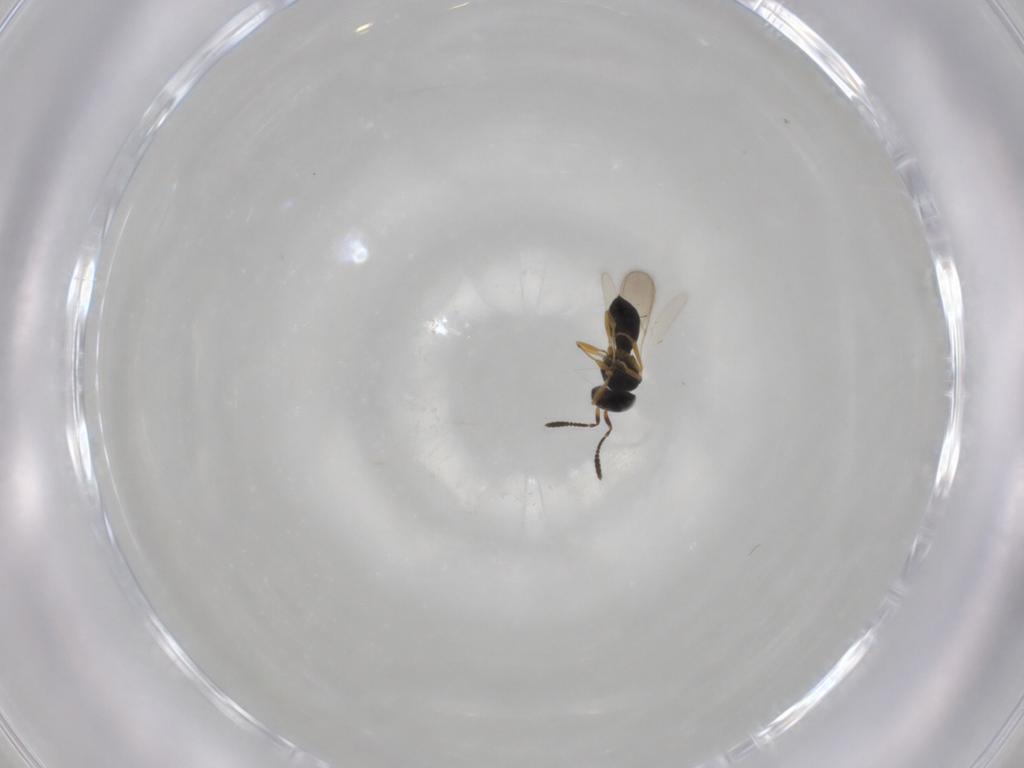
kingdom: Animalia
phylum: Arthropoda
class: Insecta
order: Hymenoptera
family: Scelionidae
